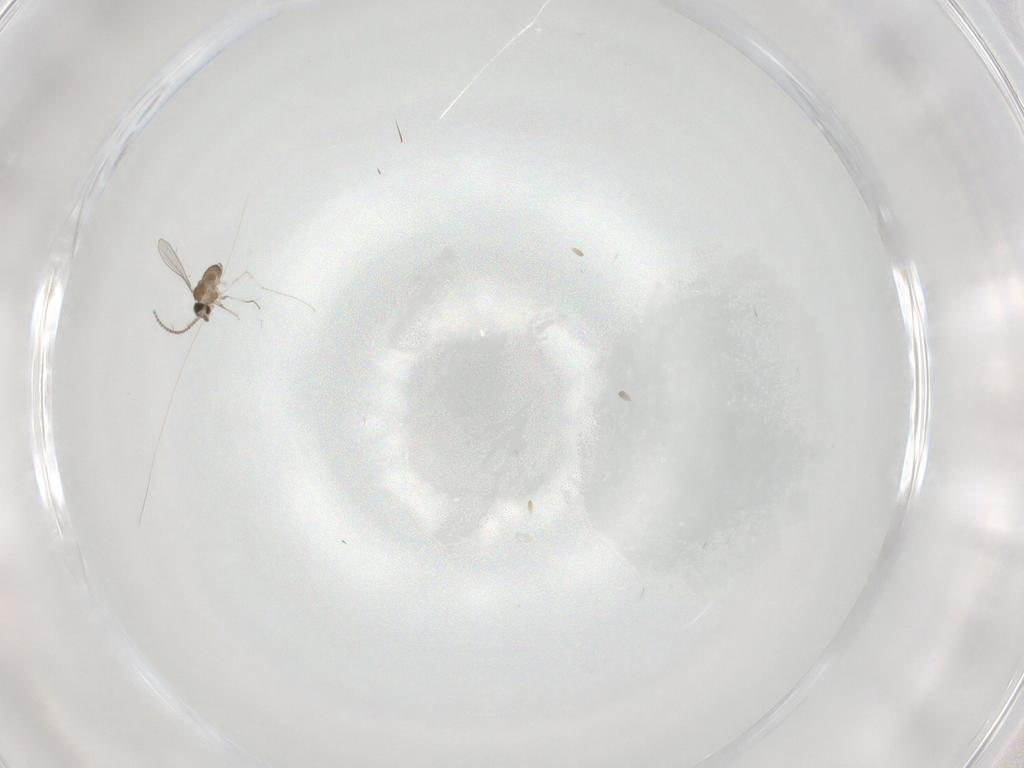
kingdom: Animalia
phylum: Arthropoda
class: Insecta
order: Diptera
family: Cecidomyiidae
